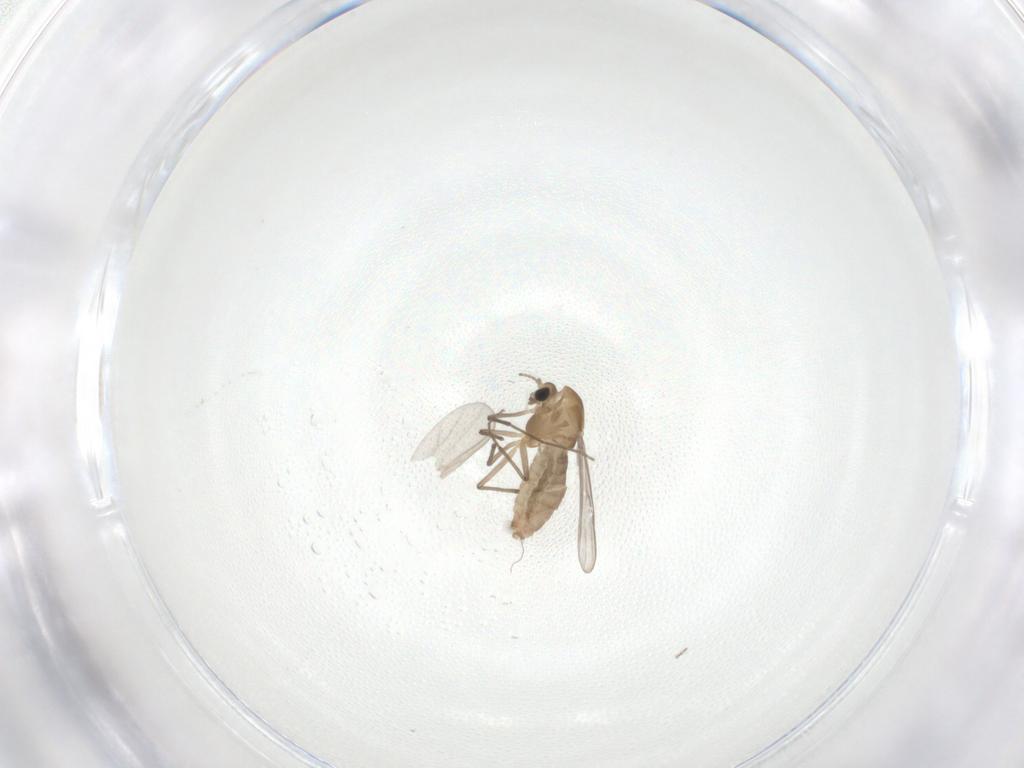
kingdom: Animalia
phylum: Arthropoda
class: Insecta
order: Diptera
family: Chironomidae
